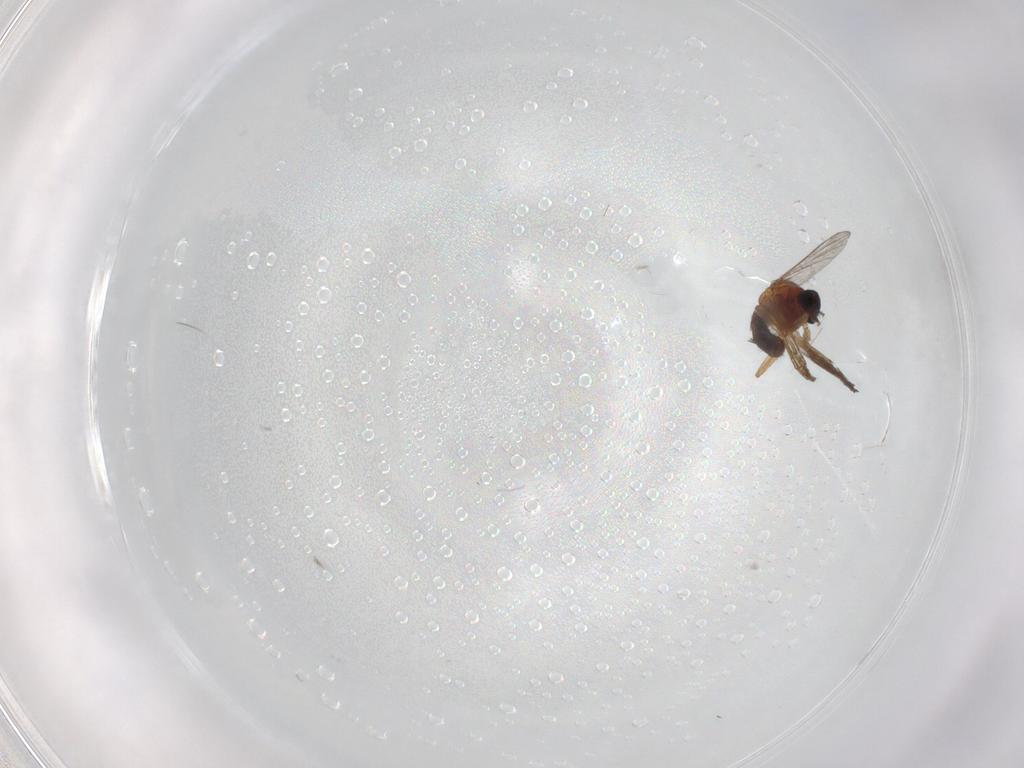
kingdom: Animalia
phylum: Arthropoda
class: Insecta
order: Diptera
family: Ceratopogonidae
